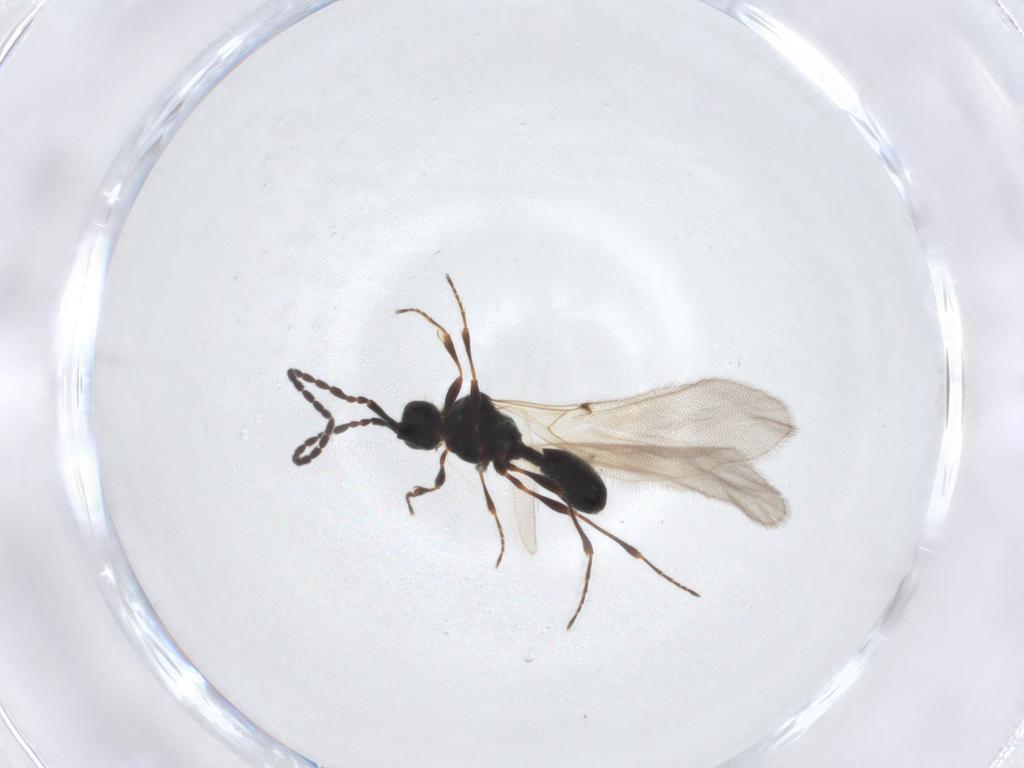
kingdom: Animalia
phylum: Arthropoda
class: Insecta
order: Hymenoptera
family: Diapriidae
